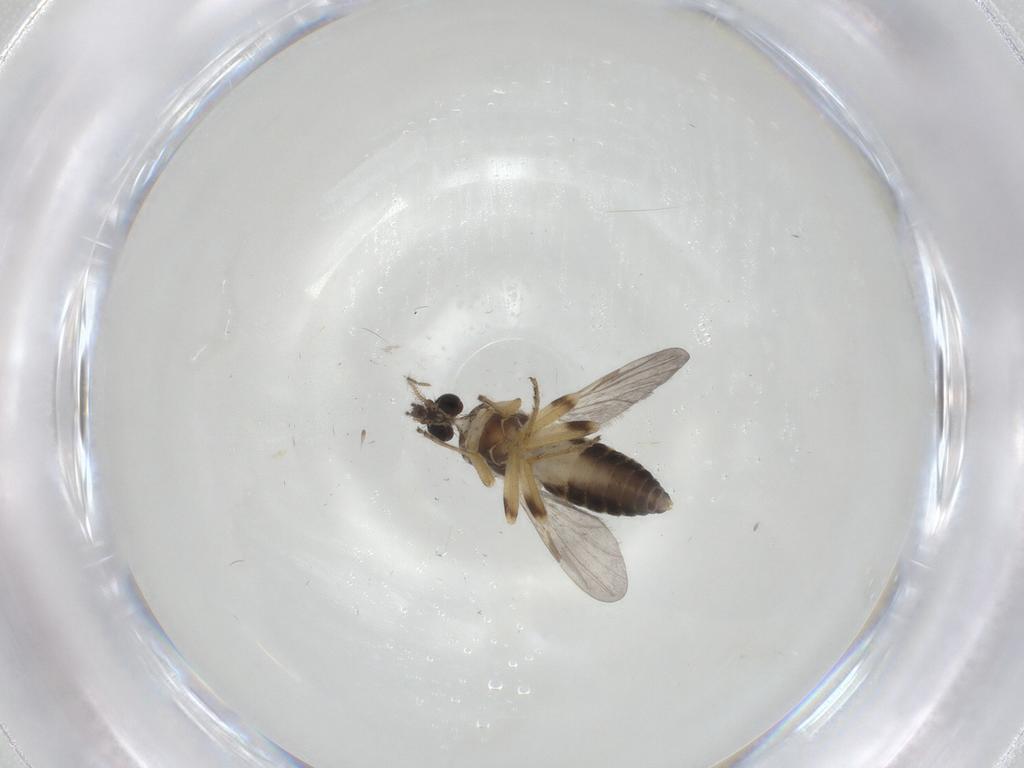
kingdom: Animalia
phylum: Arthropoda
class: Insecta
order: Diptera
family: Ceratopogonidae
